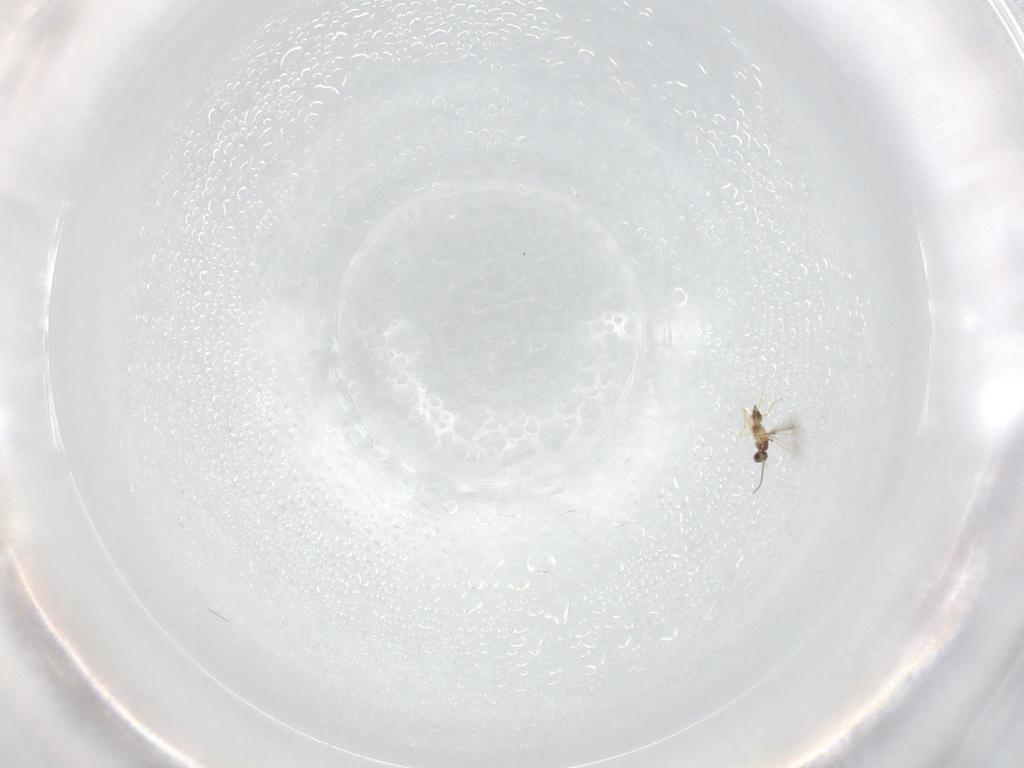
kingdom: Animalia
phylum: Arthropoda
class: Insecta
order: Hymenoptera
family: Mymaridae
